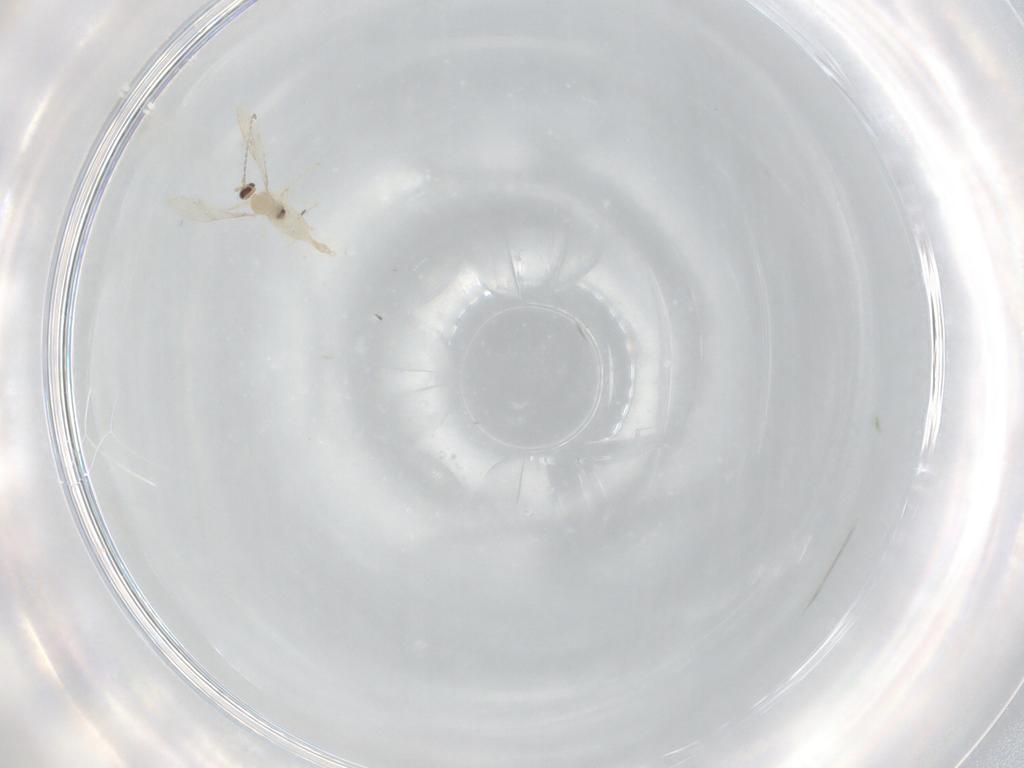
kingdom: Animalia
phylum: Arthropoda
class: Insecta
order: Diptera
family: Cecidomyiidae
